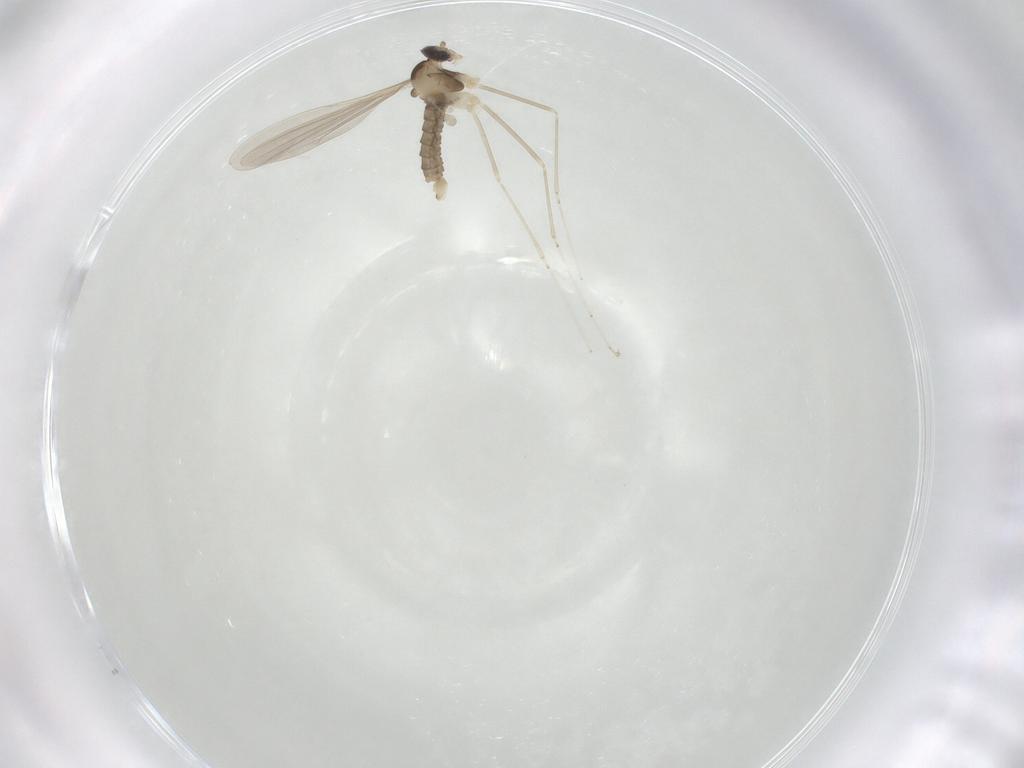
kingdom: Animalia
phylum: Arthropoda
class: Insecta
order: Diptera
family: Cecidomyiidae
